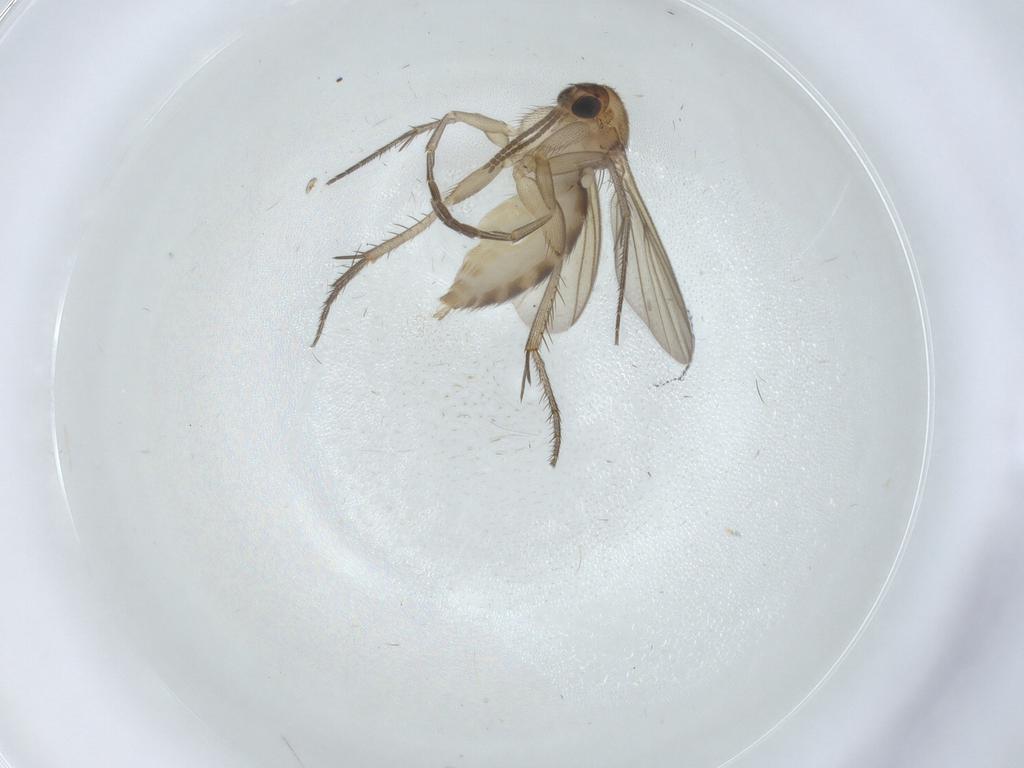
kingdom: Animalia
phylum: Arthropoda
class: Insecta
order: Diptera
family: Mycetophilidae
